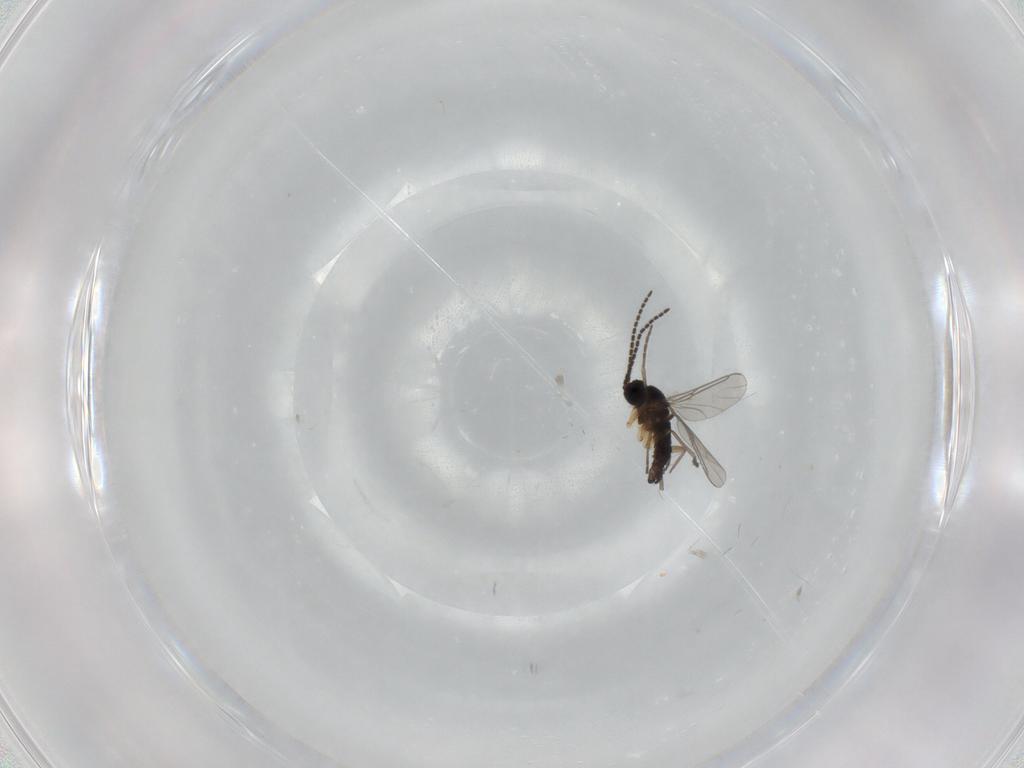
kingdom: Animalia
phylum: Arthropoda
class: Insecta
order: Diptera
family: Sciaridae
